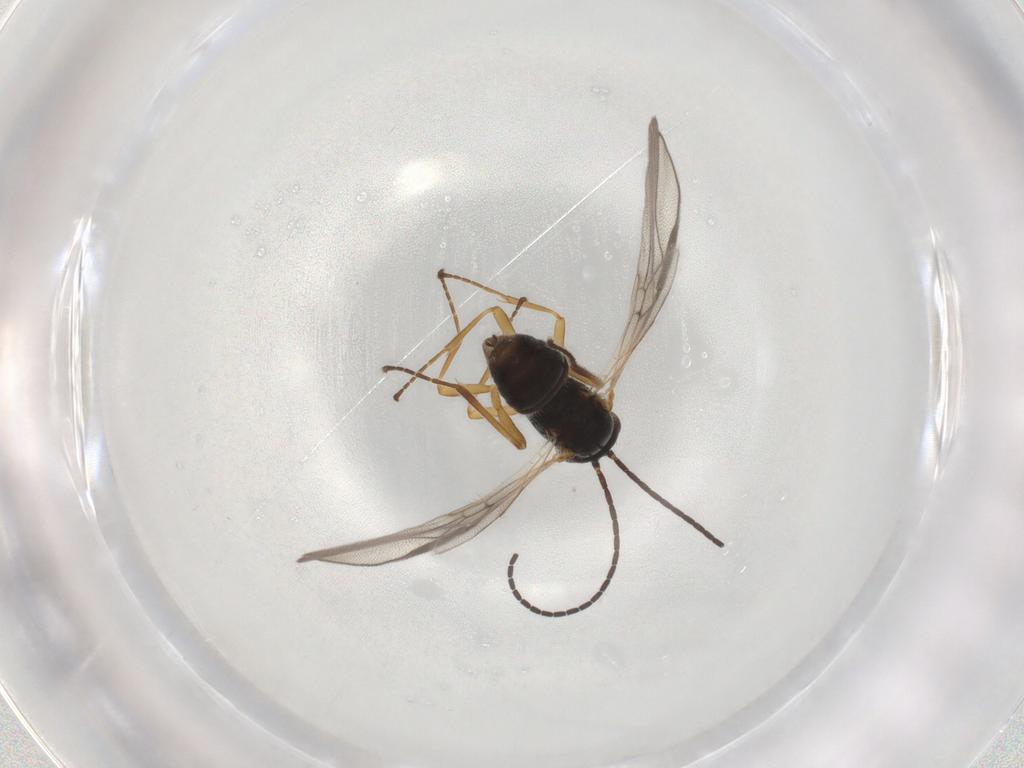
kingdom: Animalia
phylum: Arthropoda
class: Insecta
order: Hymenoptera
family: Braconidae
